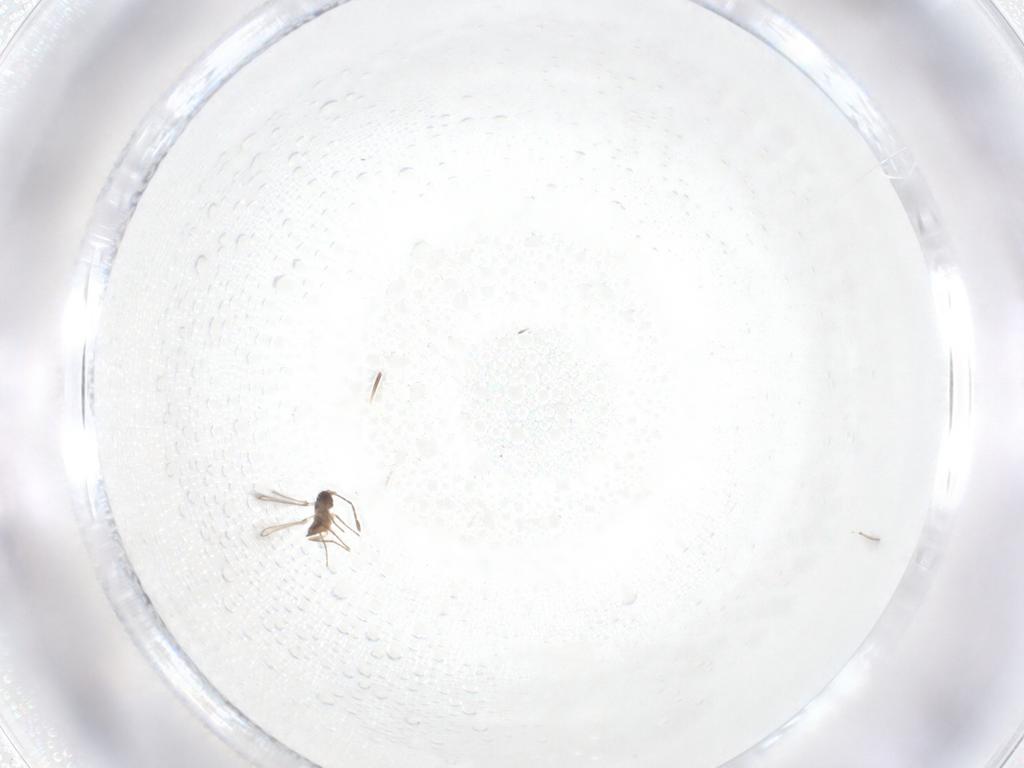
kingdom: Animalia
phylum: Arthropoda
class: Insecta
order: Hymenoptera
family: Mymaridae
